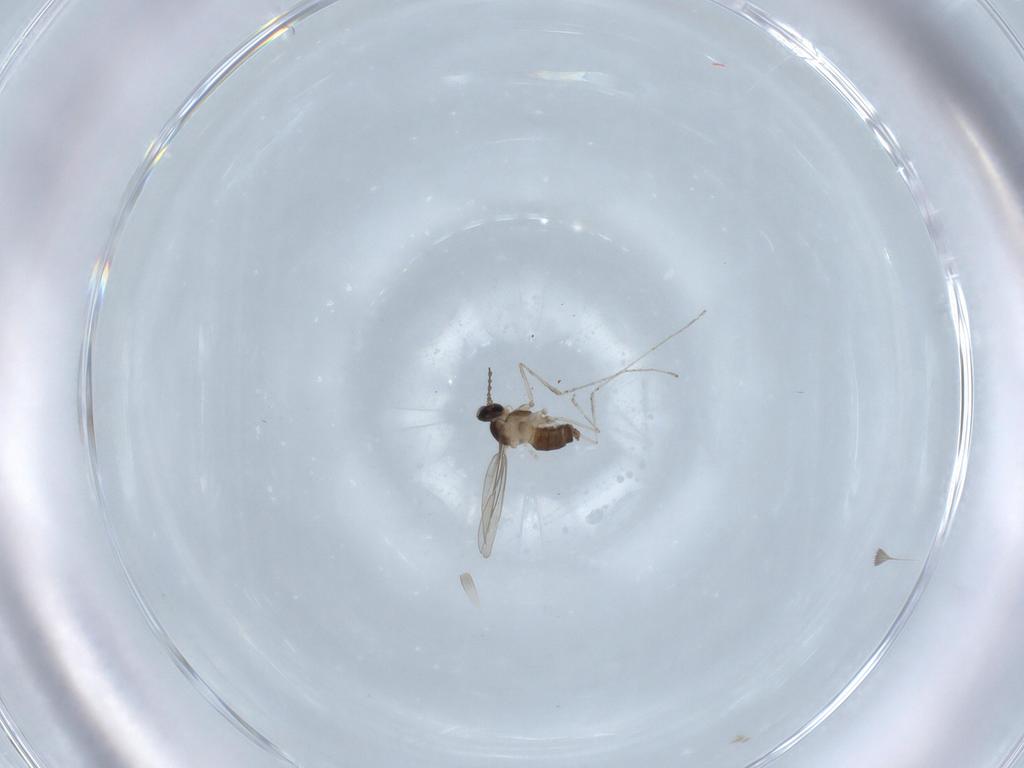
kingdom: Animalia
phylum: Arthropoda
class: Insecta
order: Diptera
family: Cecidomyiidae
